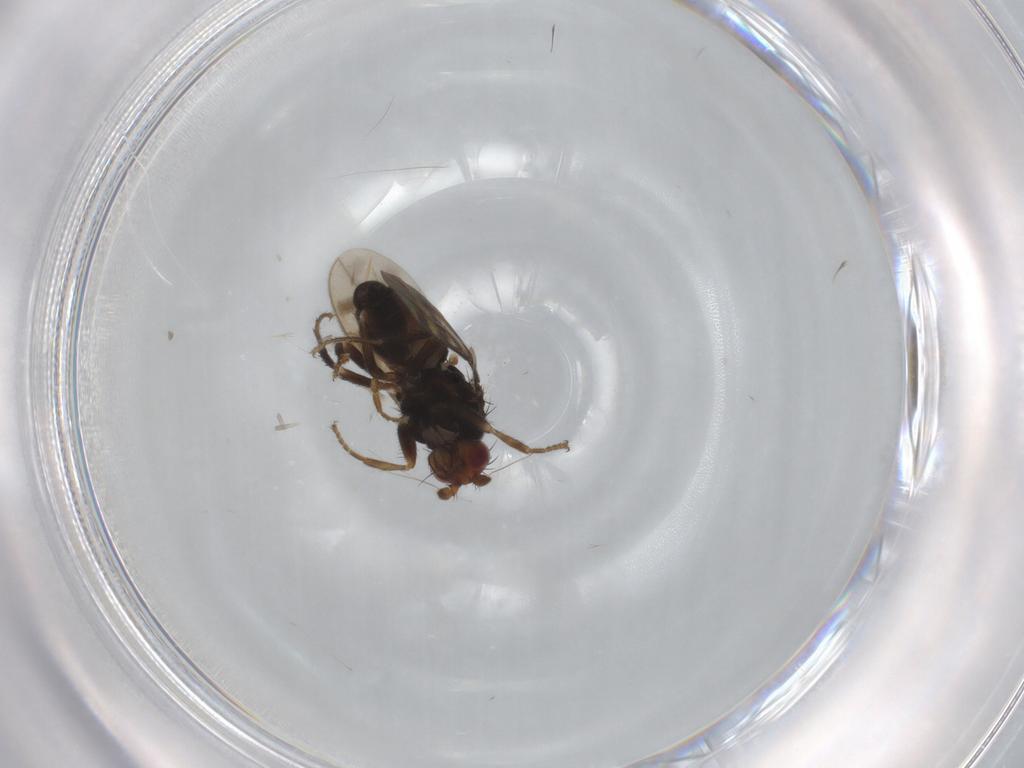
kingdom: Animalia
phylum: Arthropoda
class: Insecta
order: Diptera
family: Sphaeroceridae
